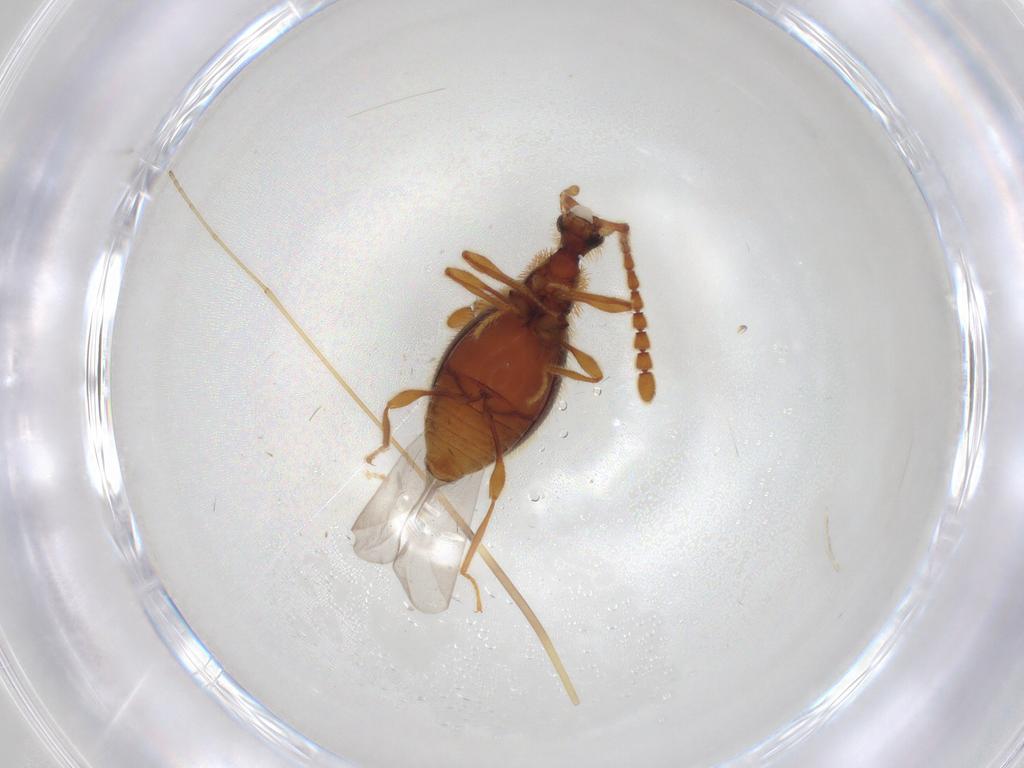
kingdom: Animalia
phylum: Arthropoda
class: Insecta
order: Coleoptera
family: Staphylinidae
